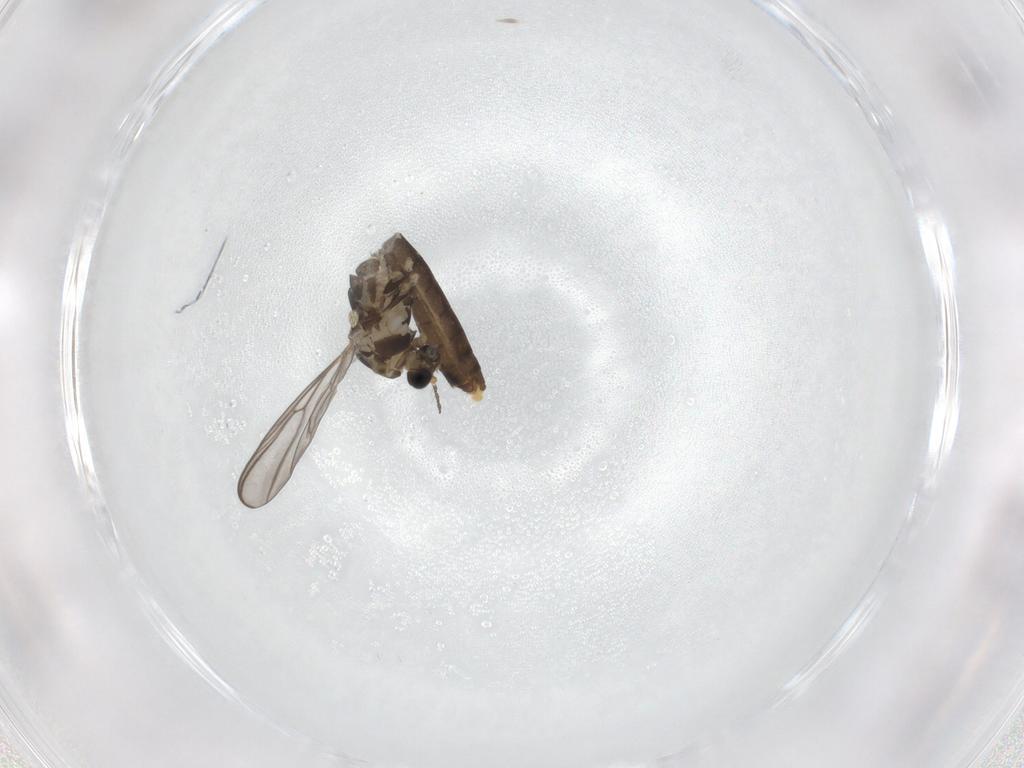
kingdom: Animalia
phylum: Arthropoda
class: Insecta
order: Diptera
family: Chironomidae
